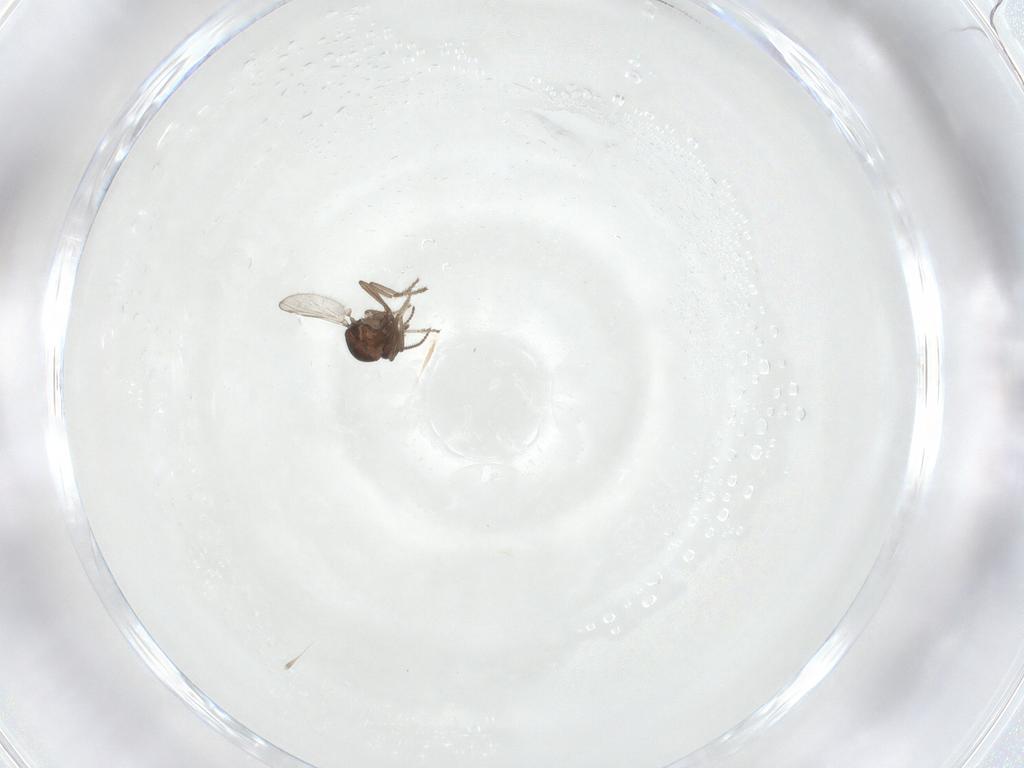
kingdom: Animalia
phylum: Arthropoda
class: Insecta
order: Diptera
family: Ceratopogonidae
